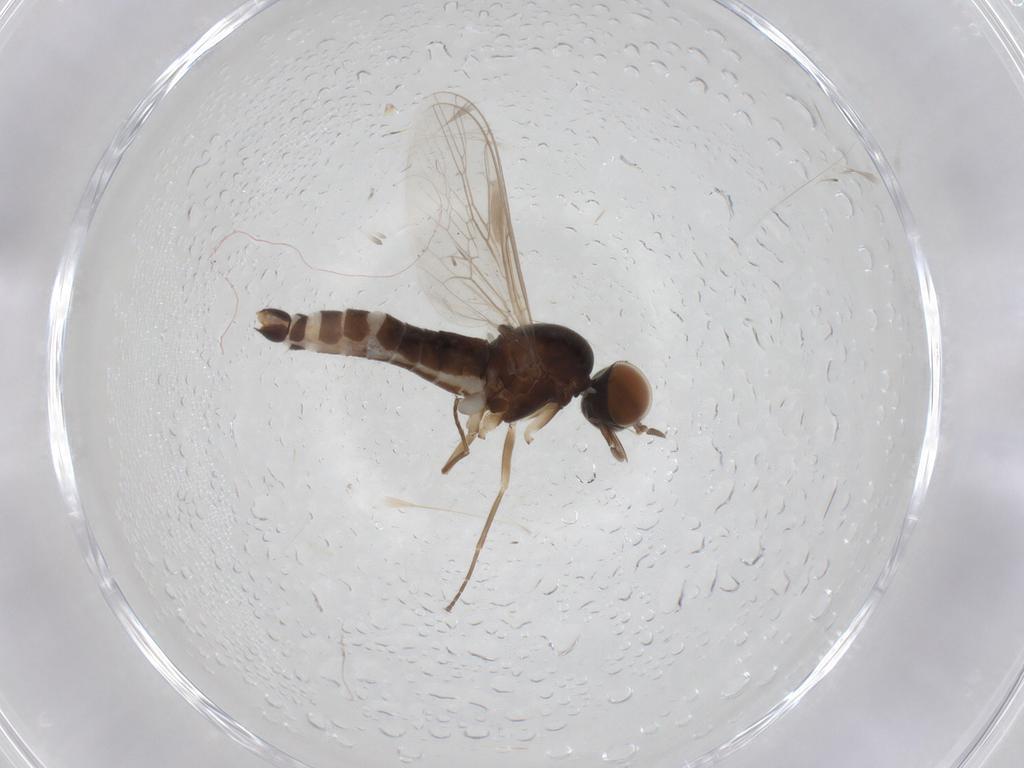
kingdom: Animalia
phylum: Arthropoda
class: Insecta
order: Diptera
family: Scenopinidae
